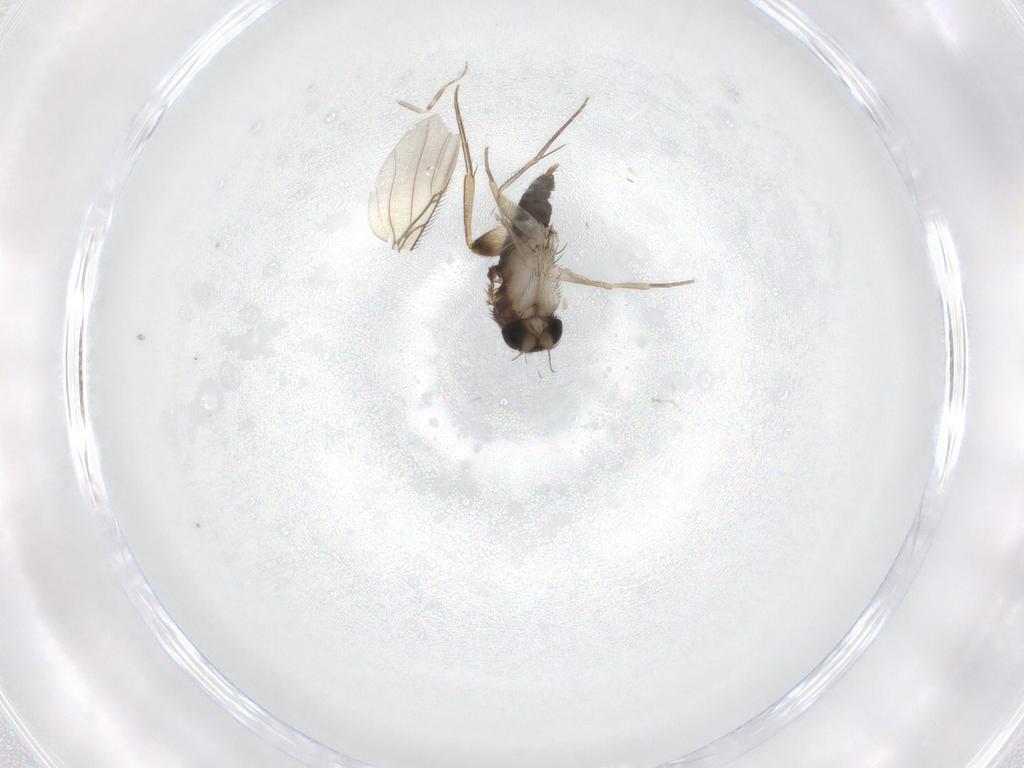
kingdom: Animalia
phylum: Arthropoda
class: Insecta
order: Diptera
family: Phoridae
